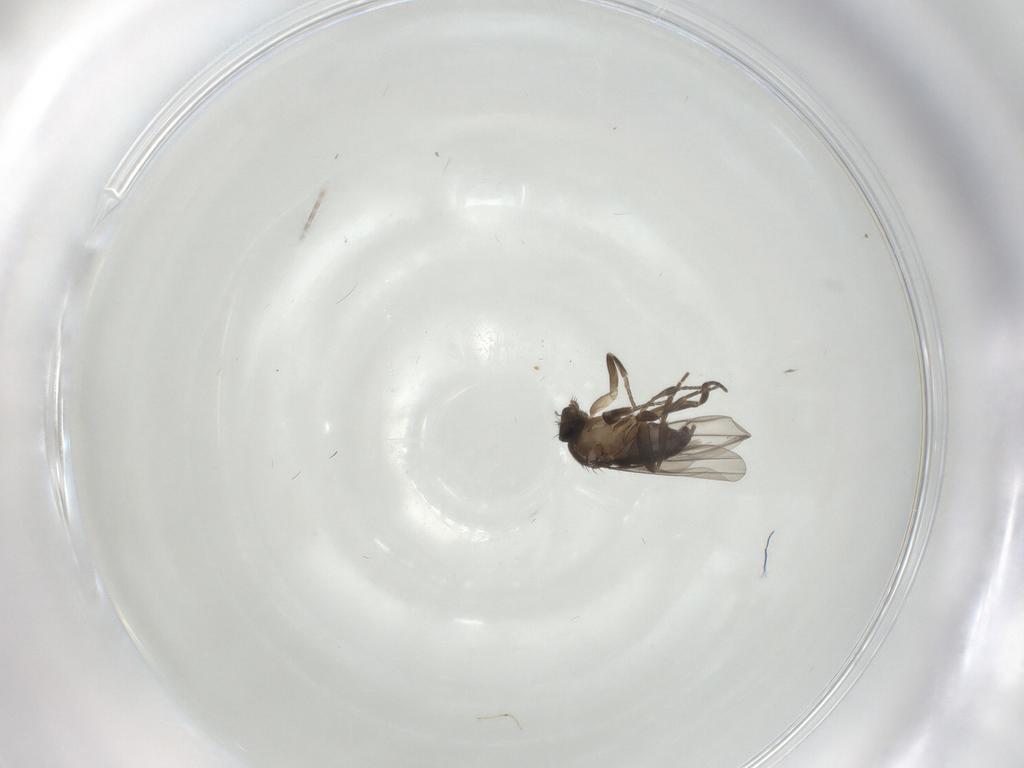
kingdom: Animalia
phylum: Arthropoda
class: Insecta
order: Diptera
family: Phoridae
